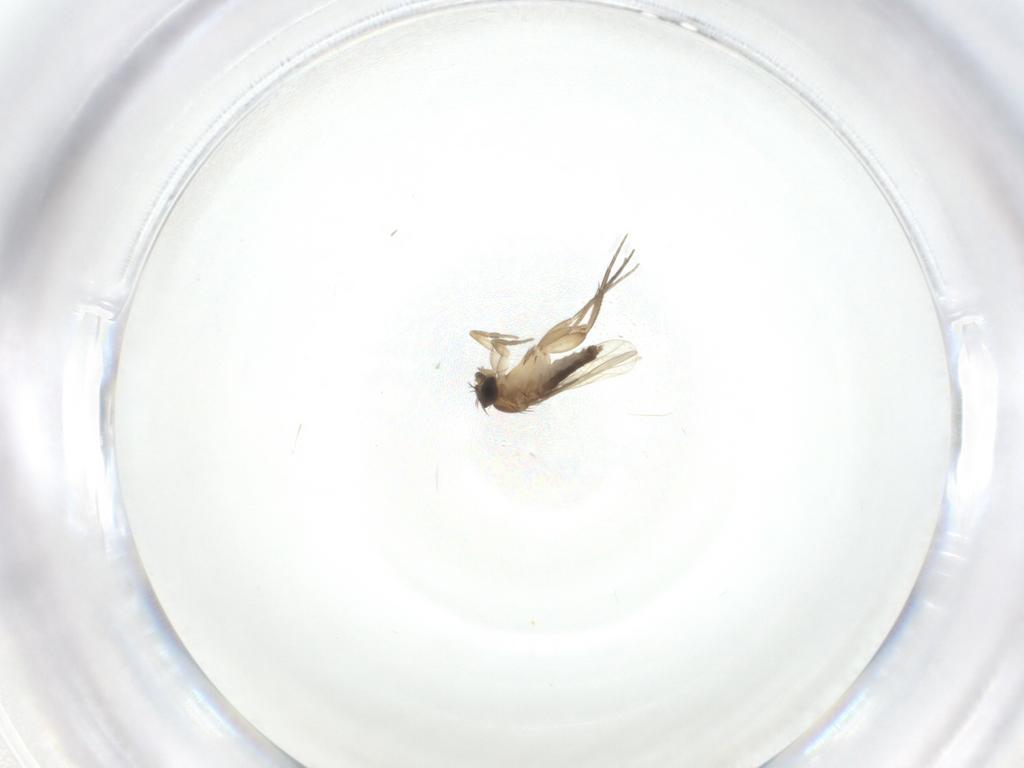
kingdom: Animalia
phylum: Arthropoda
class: Insecta
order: Diptera
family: Phoridae
